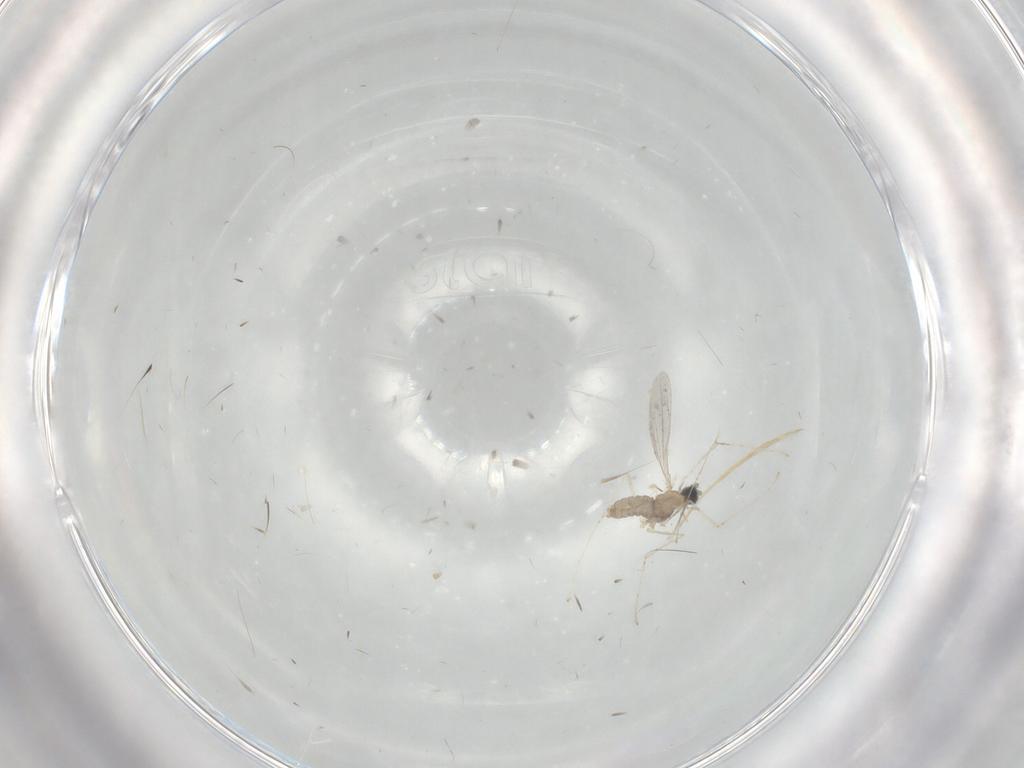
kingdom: Animalia
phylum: Arthropoda
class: Insecta
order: Diptera
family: Cecidomyiidae
